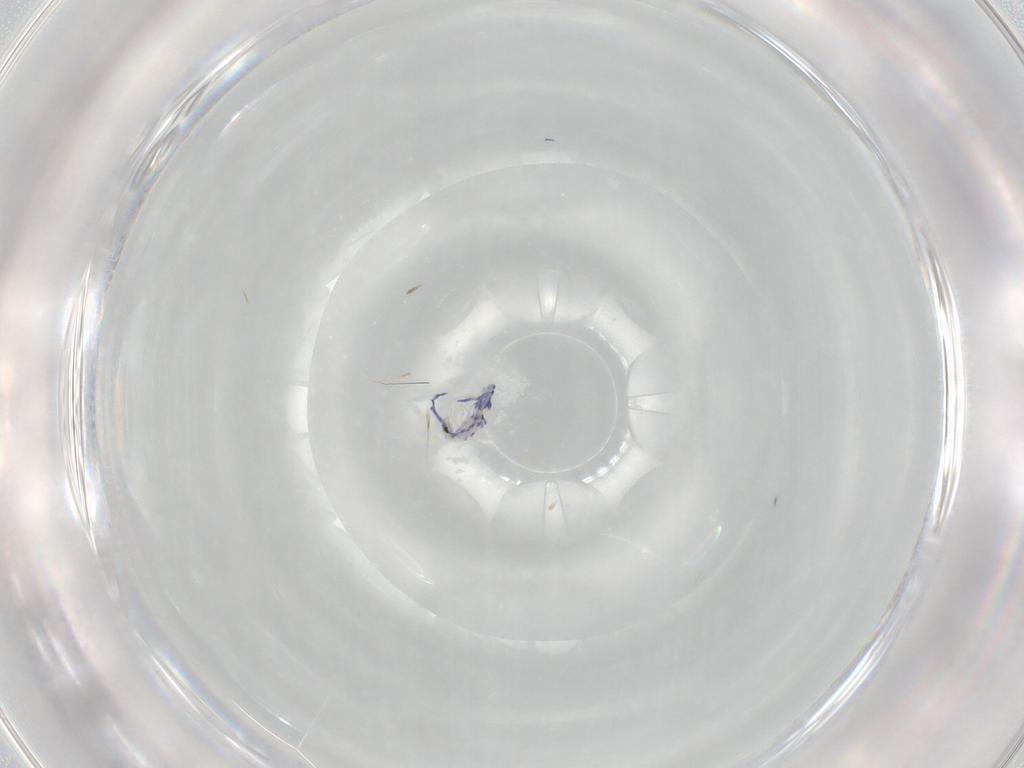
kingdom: Animalia
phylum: Arthropoda
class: Collembola
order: Entomobryomorpha
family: Entomobryidae
